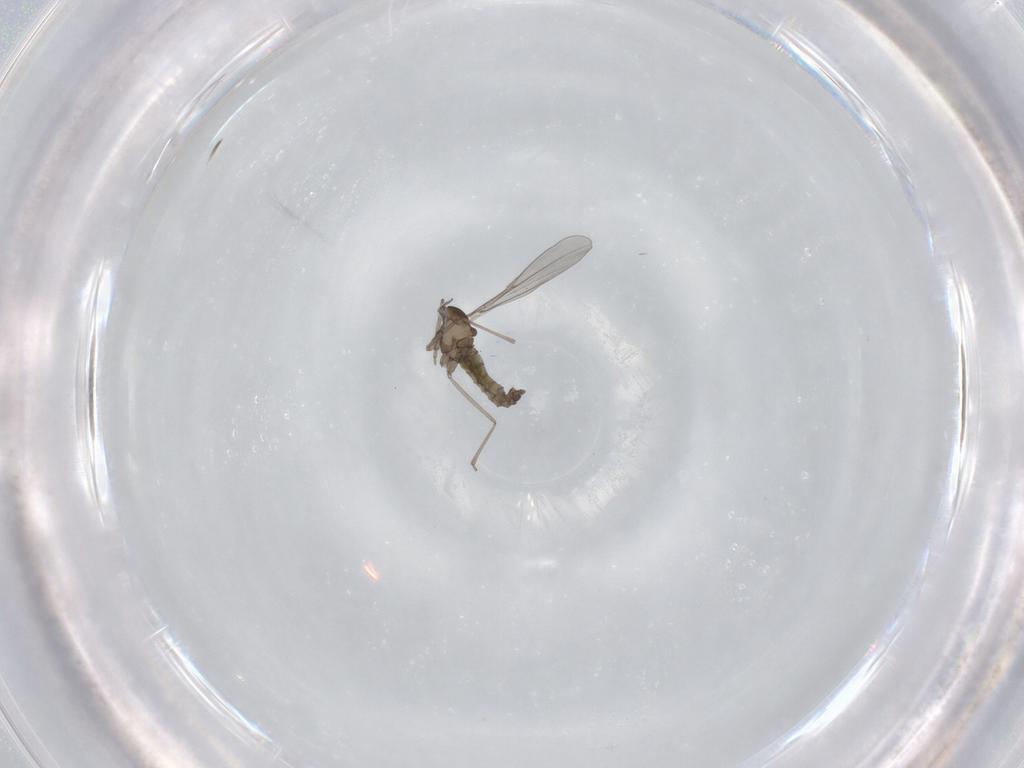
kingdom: Animalia
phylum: Arthropoda
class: Insecta
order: Diptera
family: Cecidomyiidae
